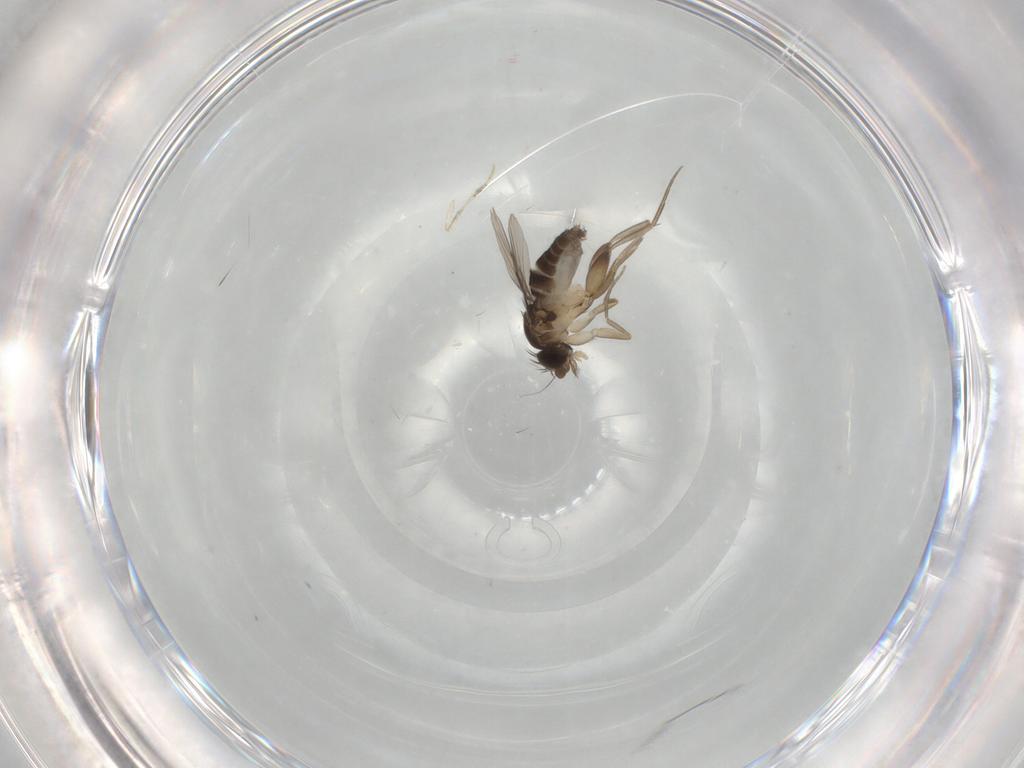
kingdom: Animalia
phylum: Arthropoda
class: Insecta
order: Diptera
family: Phoridae
